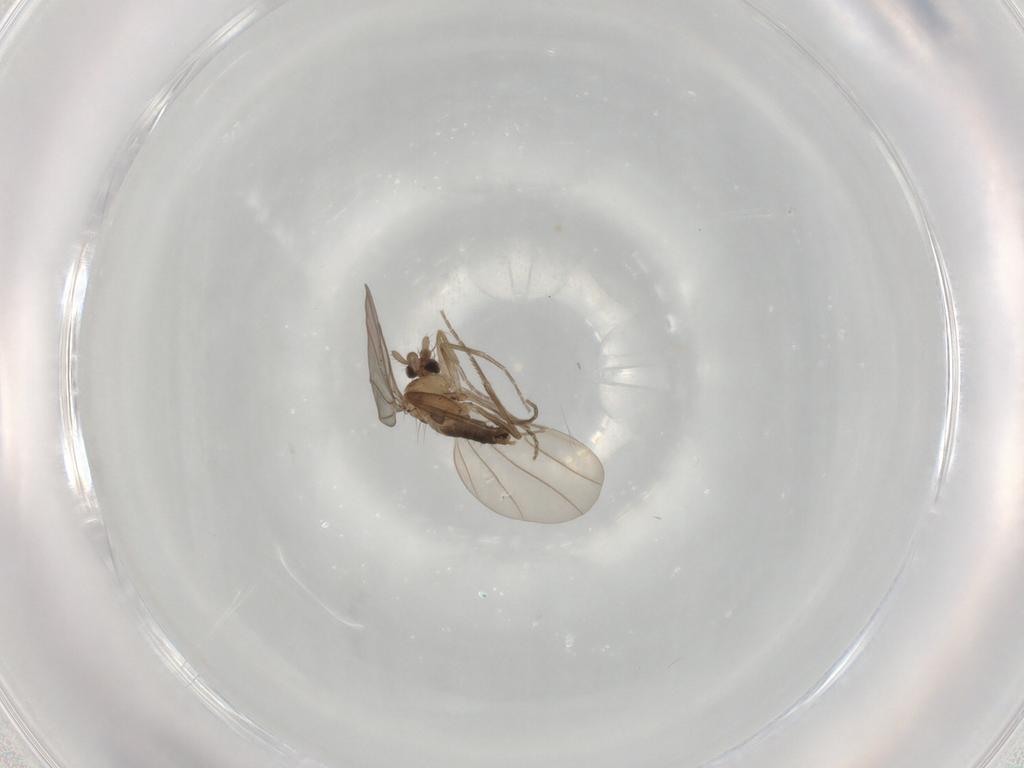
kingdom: Animalia
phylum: Arthropoda
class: Insecta
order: Diptera
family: Phoridae
